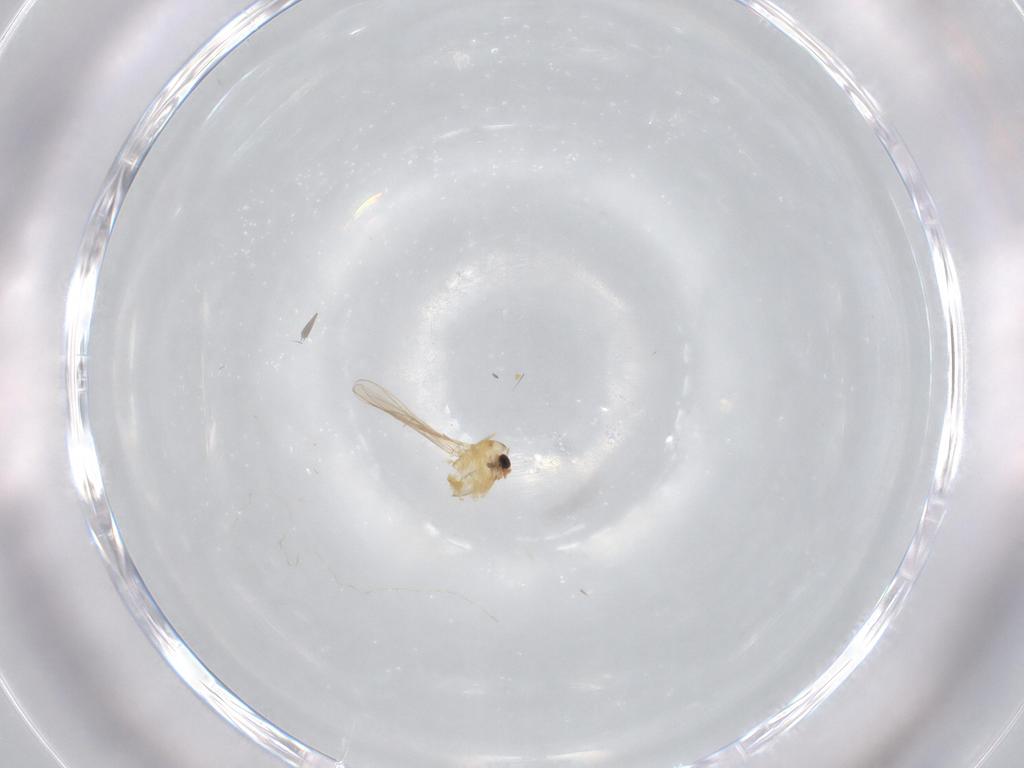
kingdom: Animalia
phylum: Arthropoda
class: Insecta
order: Diptera
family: Chironomidae
